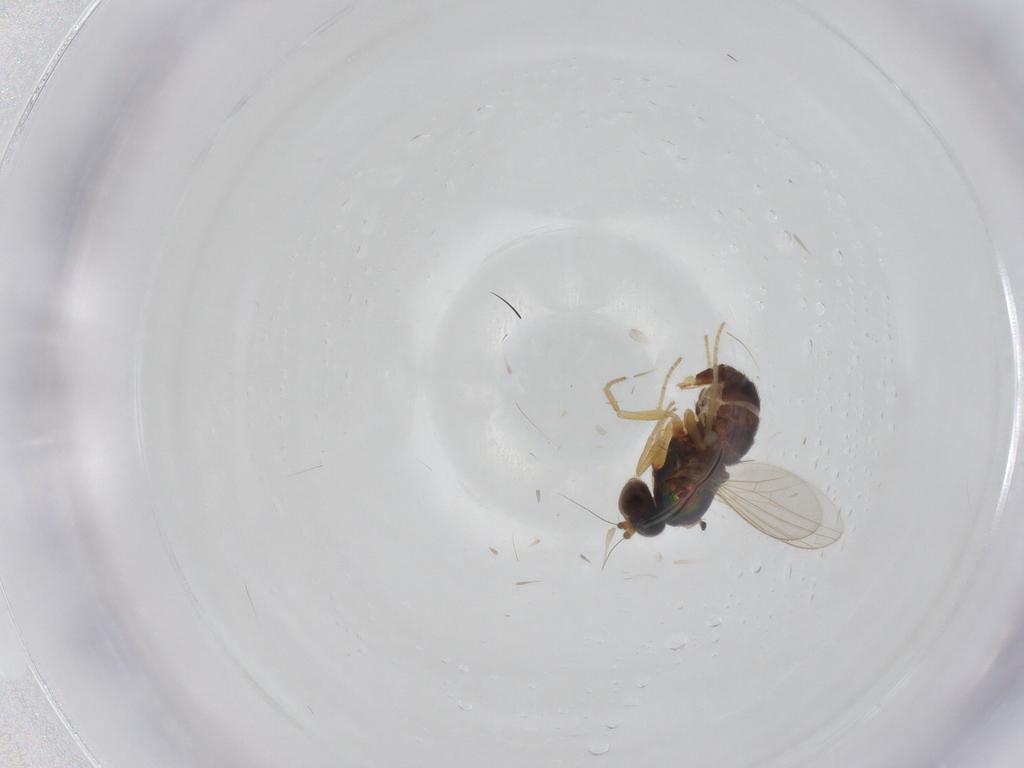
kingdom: Animalia
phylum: Arthropoda
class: Insecta
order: Diptera
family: Dolichopodidae
